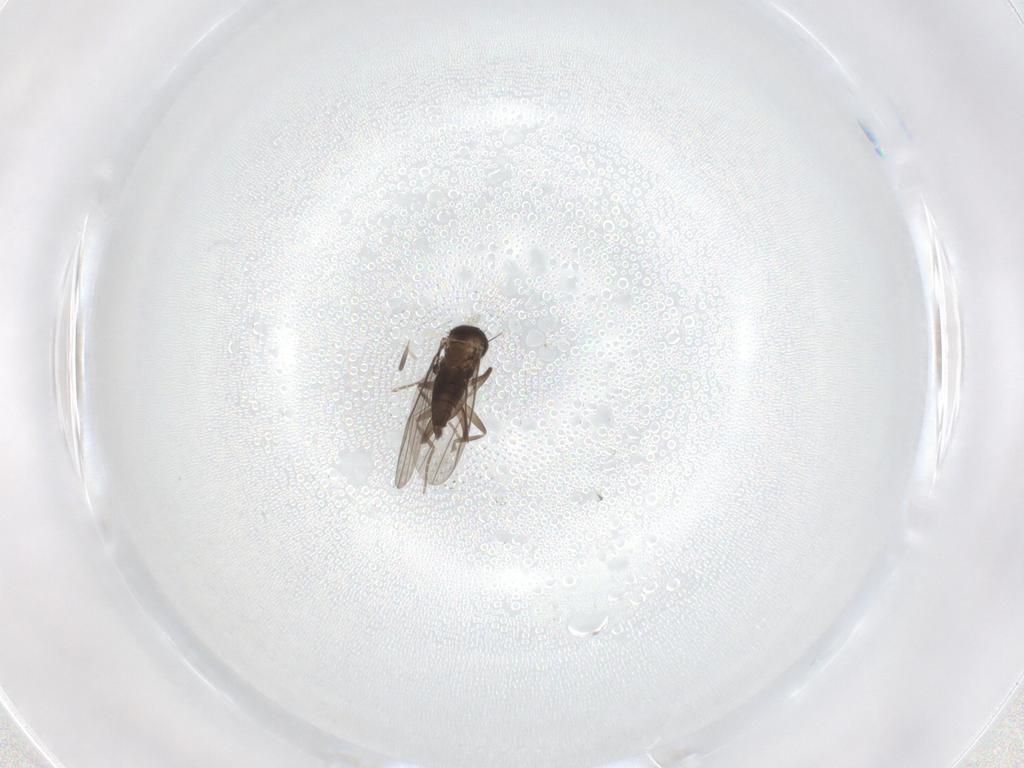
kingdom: Animalia
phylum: Arthropoda
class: Insecta
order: Diptera
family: Phoridae
